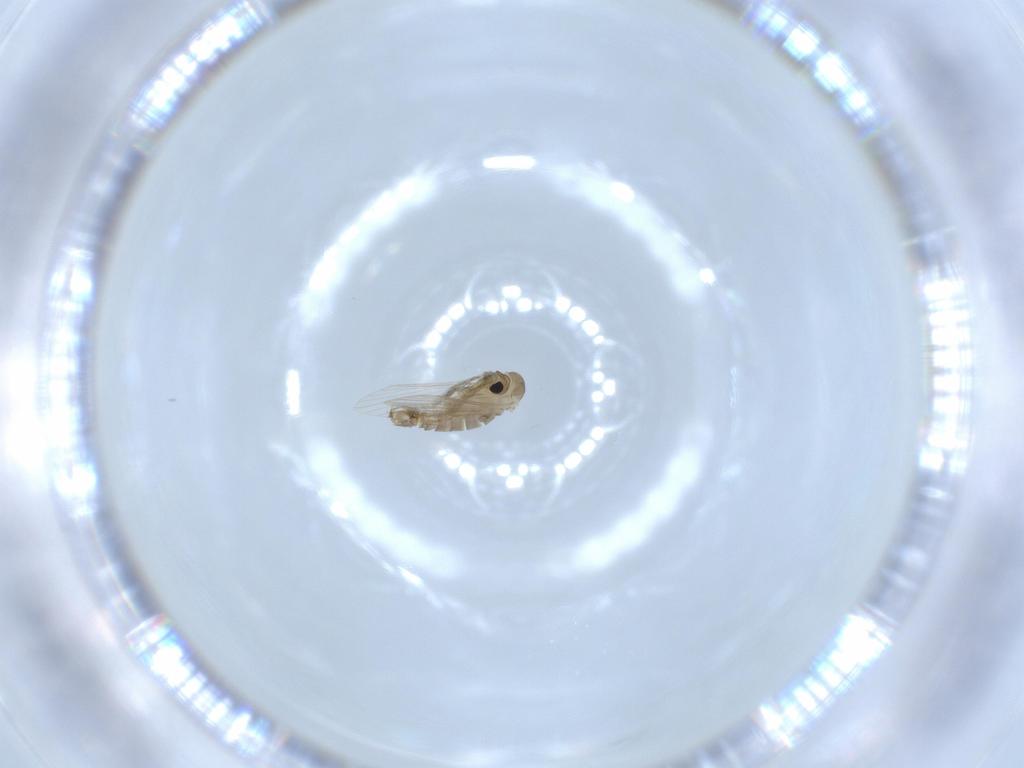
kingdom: Animalia
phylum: Arthropoda
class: Insecta
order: Diptera
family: Psychodidae
